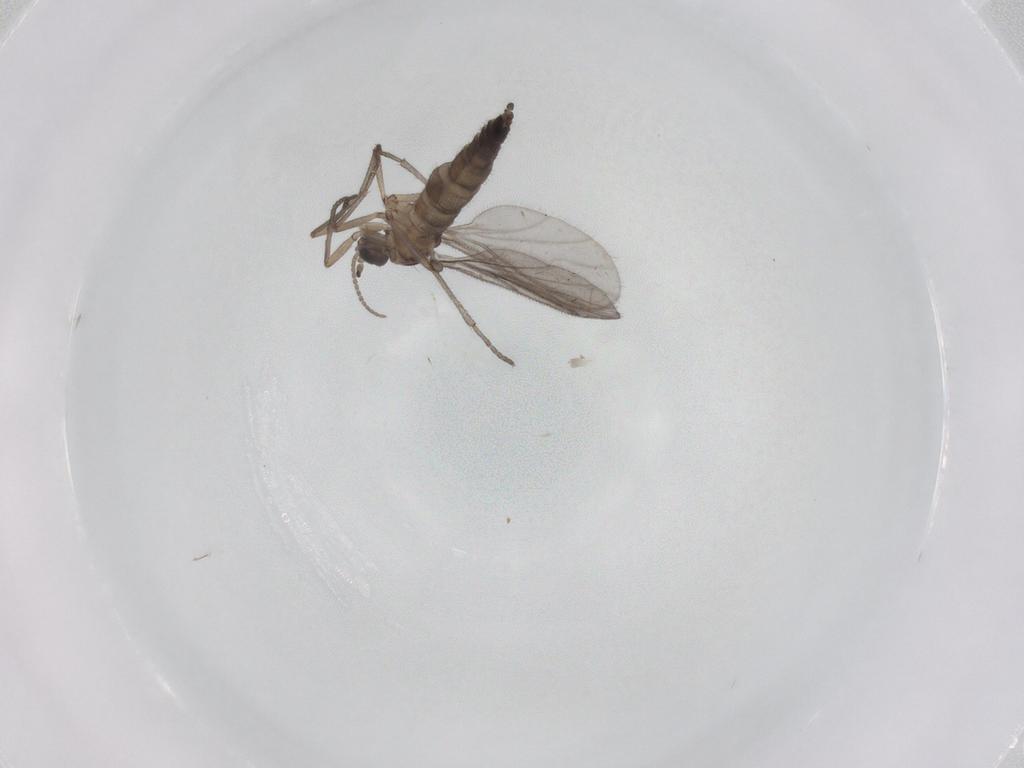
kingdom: Animalia
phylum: Arthropoda
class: Insecta
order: Diptera
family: Sciaridae
